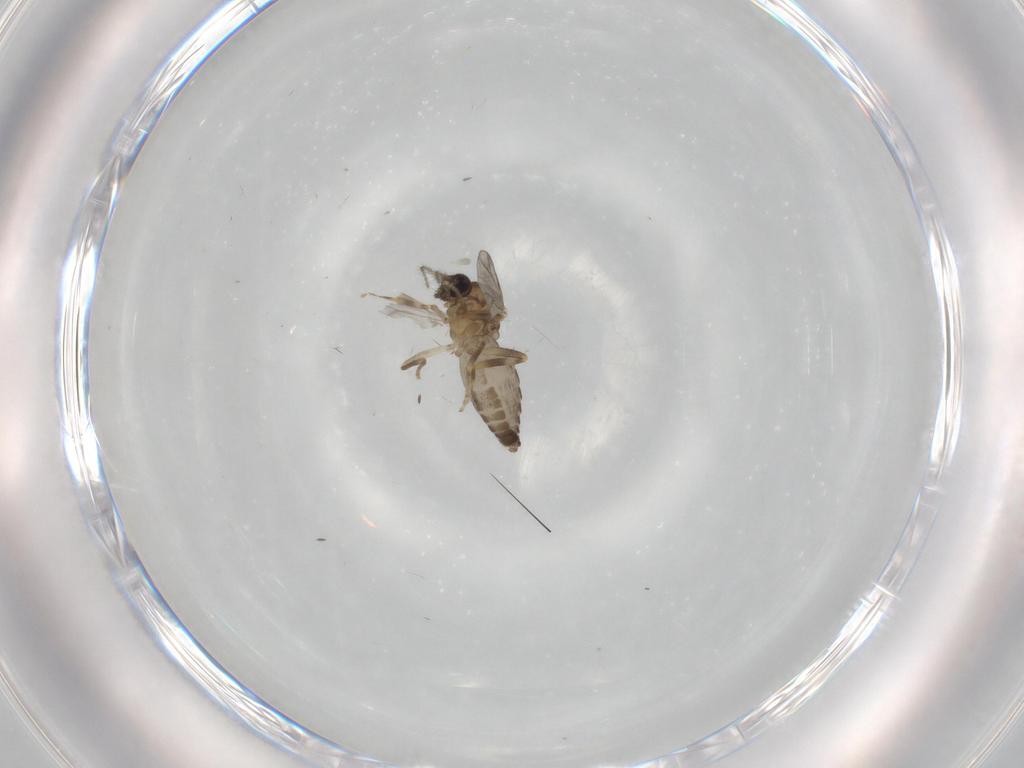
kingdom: Animalia
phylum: Arthropoda
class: Insecta
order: Diptera
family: Ceratopogonidae
